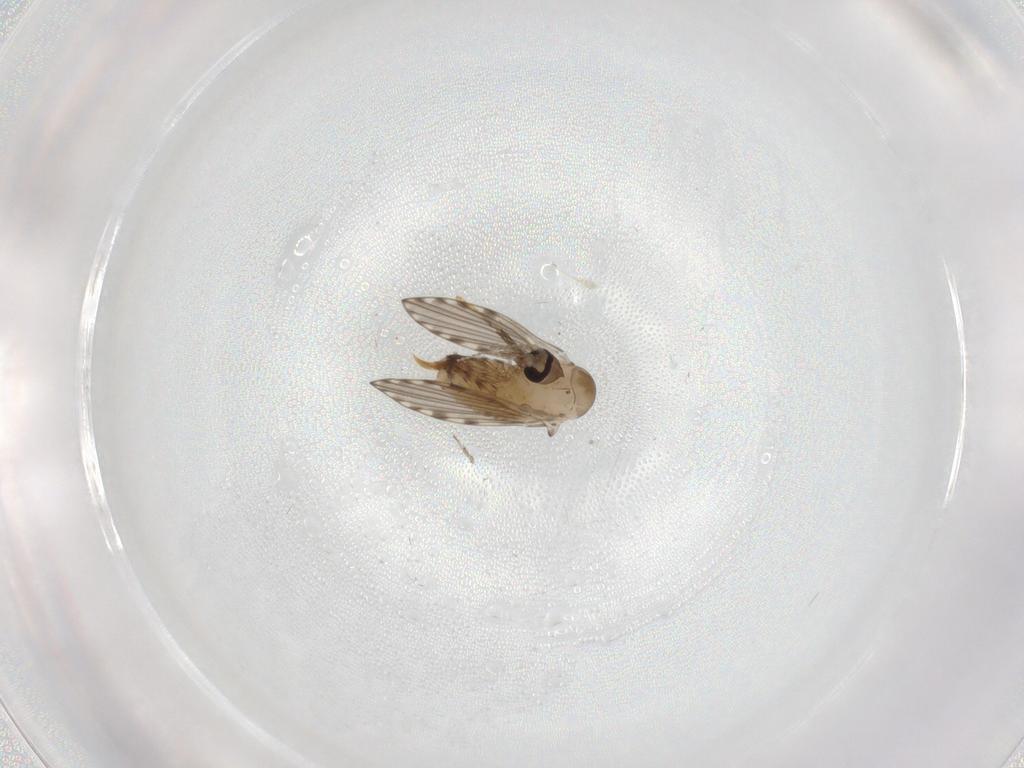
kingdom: Animalia
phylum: Arthropoda
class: Insecta
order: Diptera
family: Psychodidae
